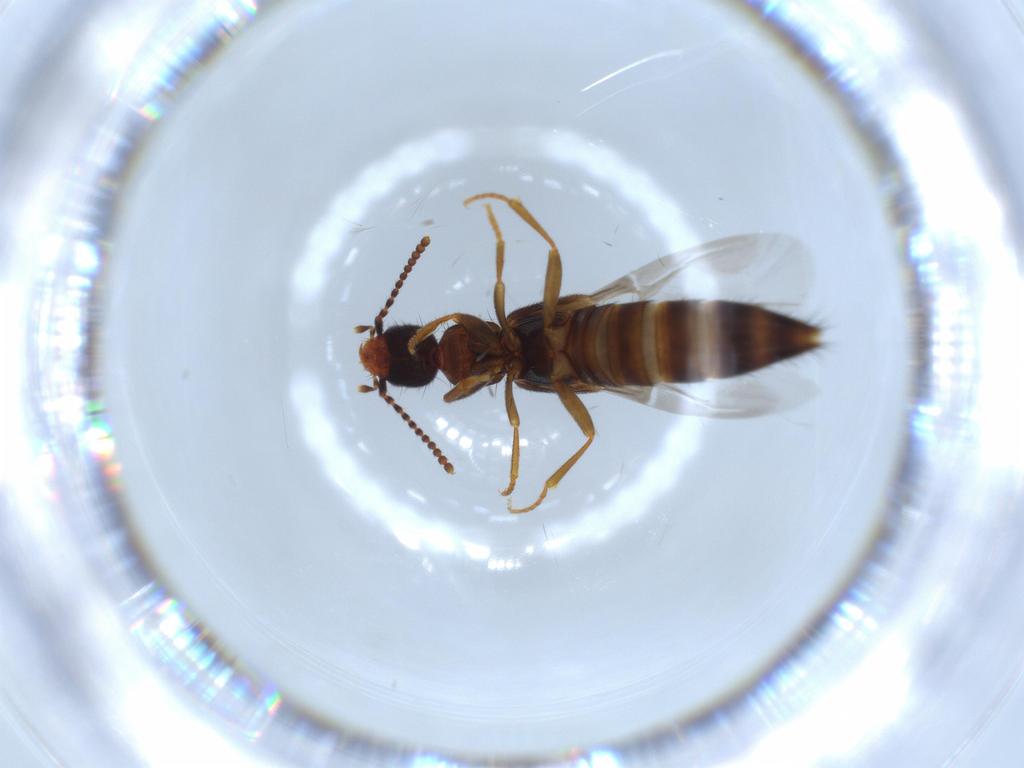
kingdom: Animalia
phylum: Arthropoda
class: Insecta
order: Coleoptera
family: Staphylinidae
